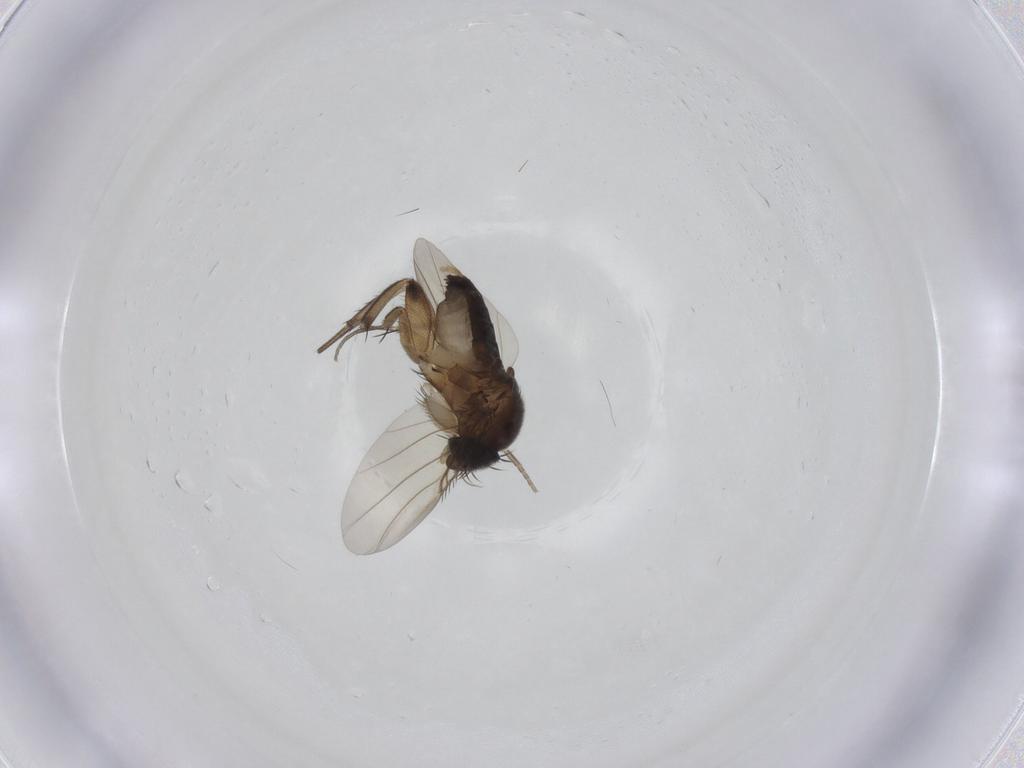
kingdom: Animalia
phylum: Arthropoda
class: Insecta
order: Diptera
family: Phoridae
